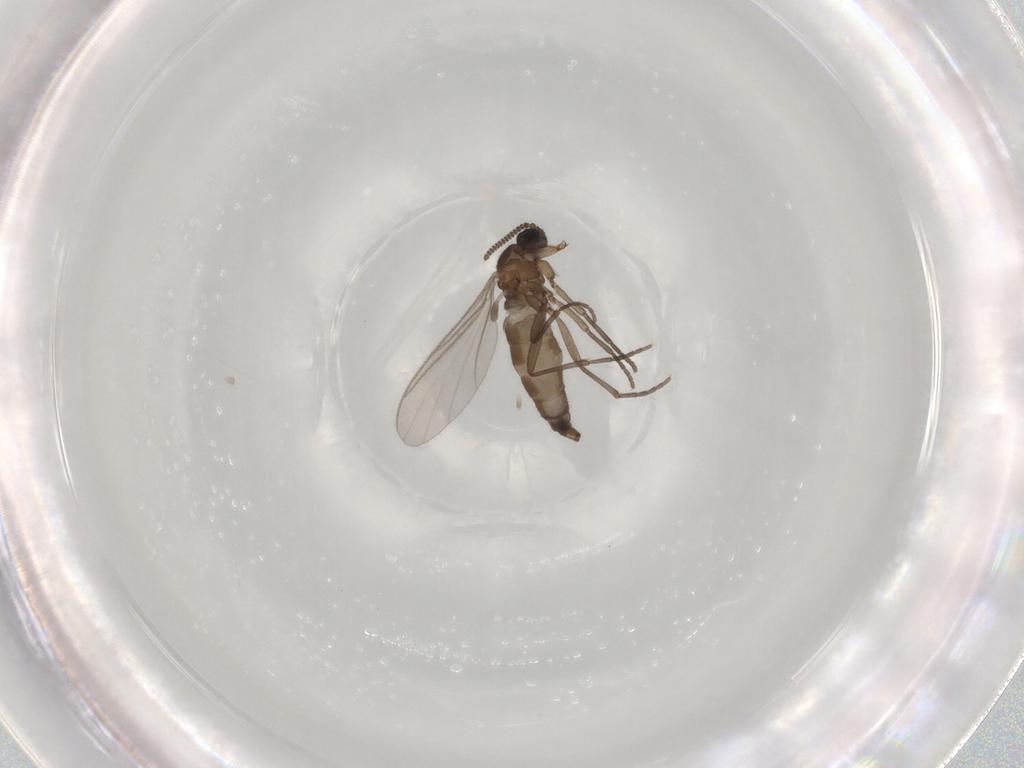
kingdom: Animalia
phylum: Arthropoda
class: Insecta
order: Diptera
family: Sciaridae
